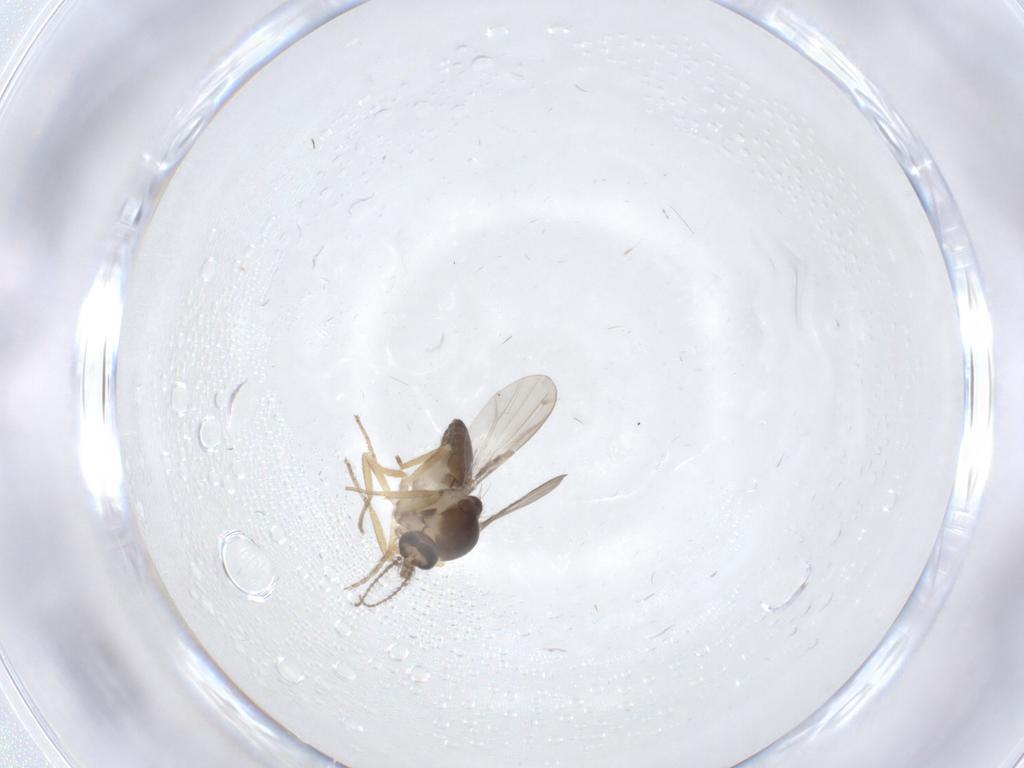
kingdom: Animalia
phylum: Arthropoda
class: Insecta
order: Diptera
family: Ceratopogonidae
